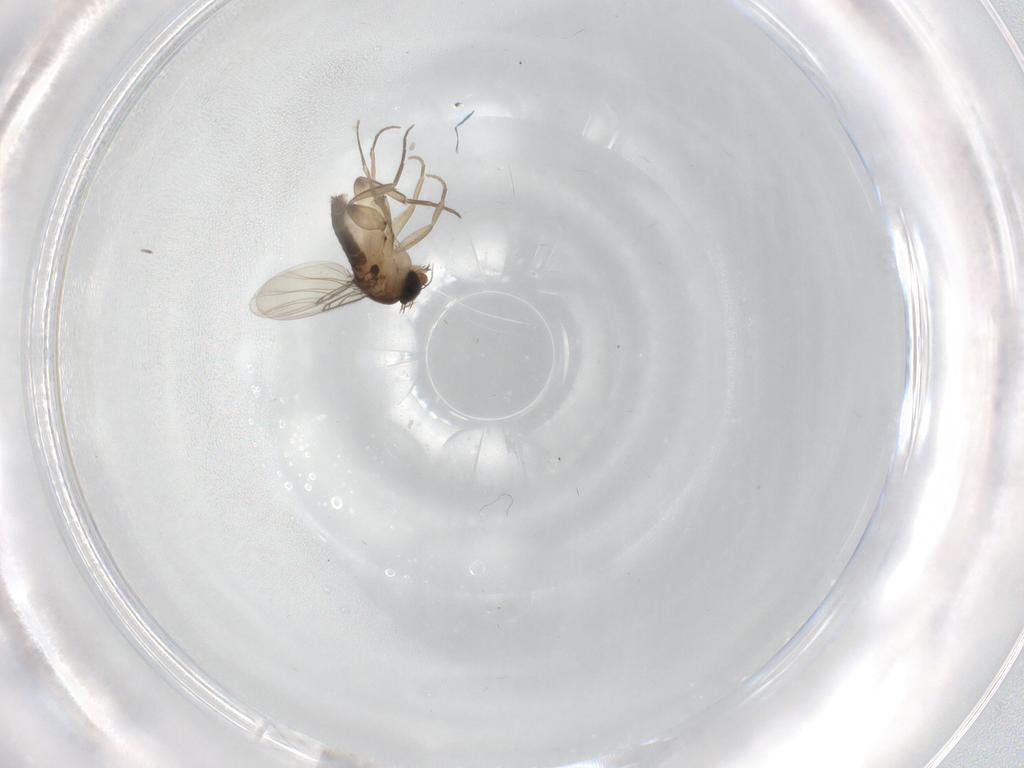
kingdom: Animalia
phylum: Arthropoda
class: Insecta
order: Diptera
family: Phoridae
